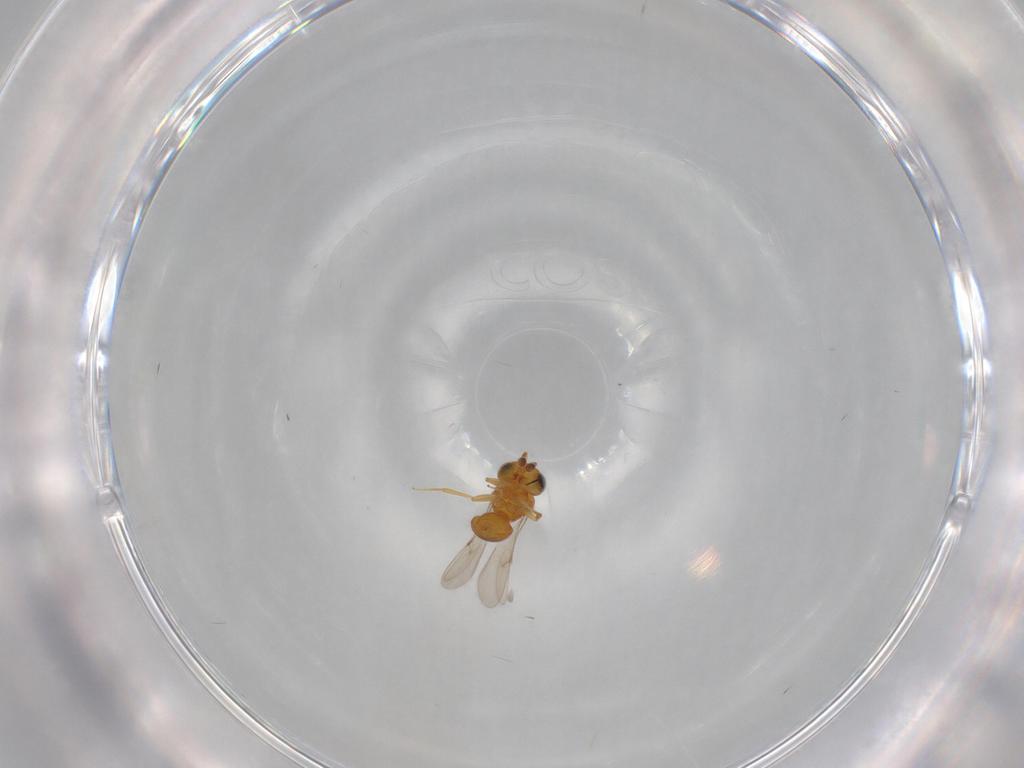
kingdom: Animalia
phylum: Arthropoda
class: Insecta
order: Hymenoptera
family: Scelionidae
